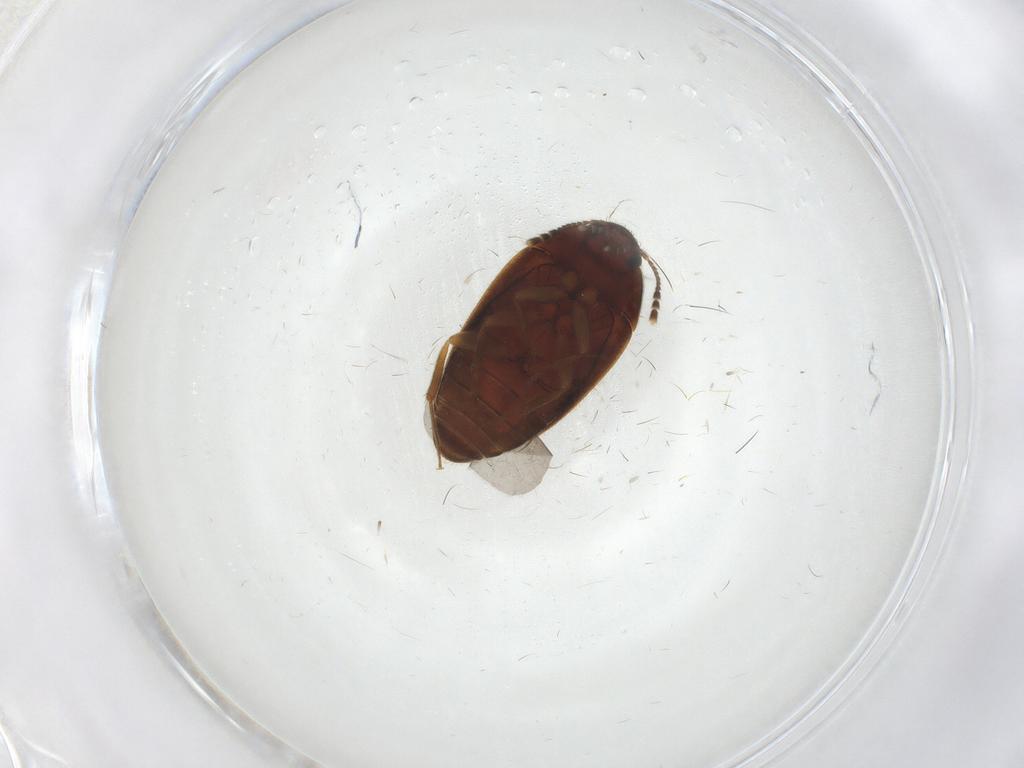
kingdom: Animalia
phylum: Arthropoda
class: Insecta
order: Coleoptera
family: Mycetophagidae
